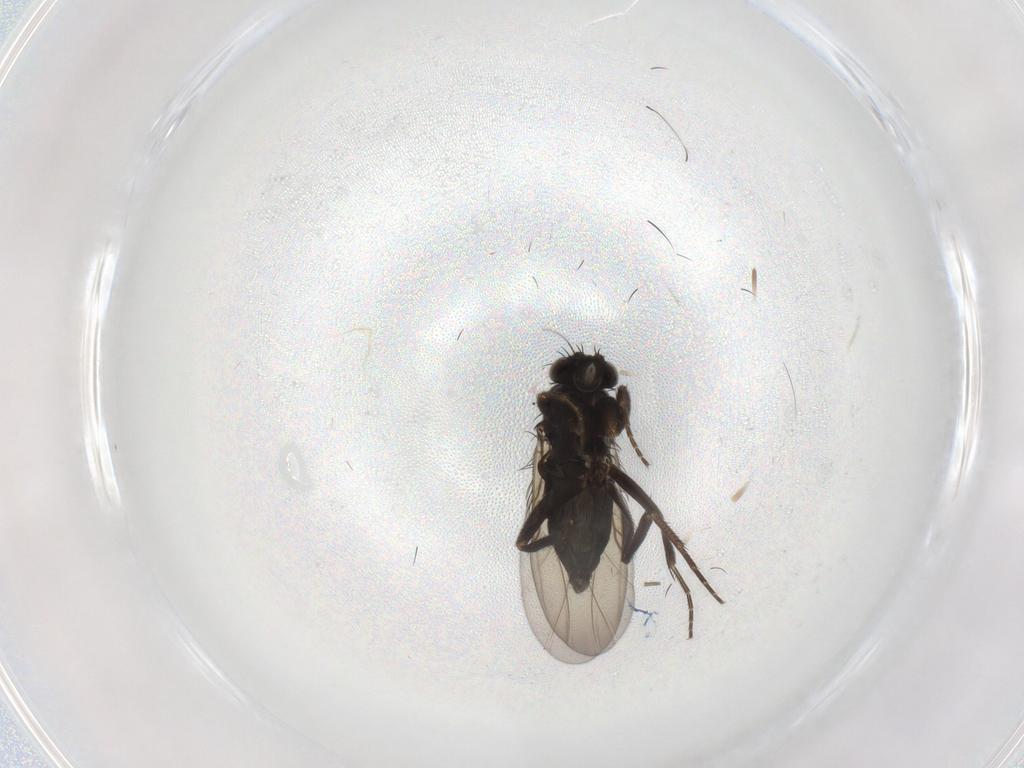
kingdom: Animalia
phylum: Arthropoda
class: Insecta
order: Diptera
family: Phoridae
